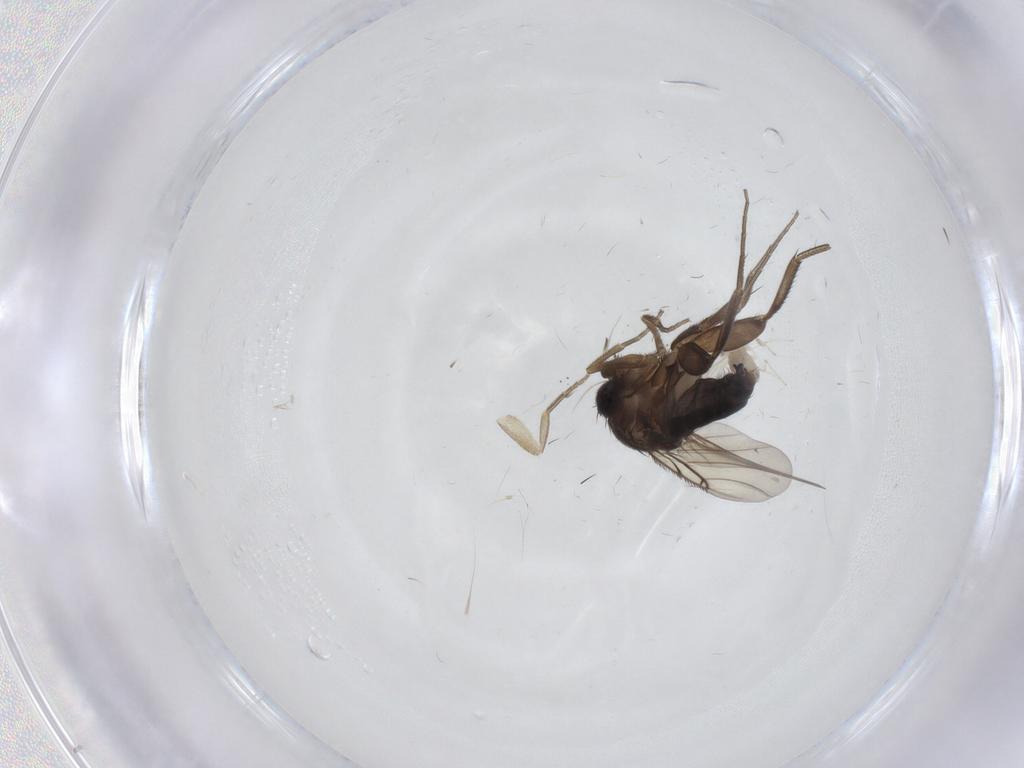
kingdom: Animalia
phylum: Arthropoda
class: Insecta
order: Diptera
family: Phoridae
